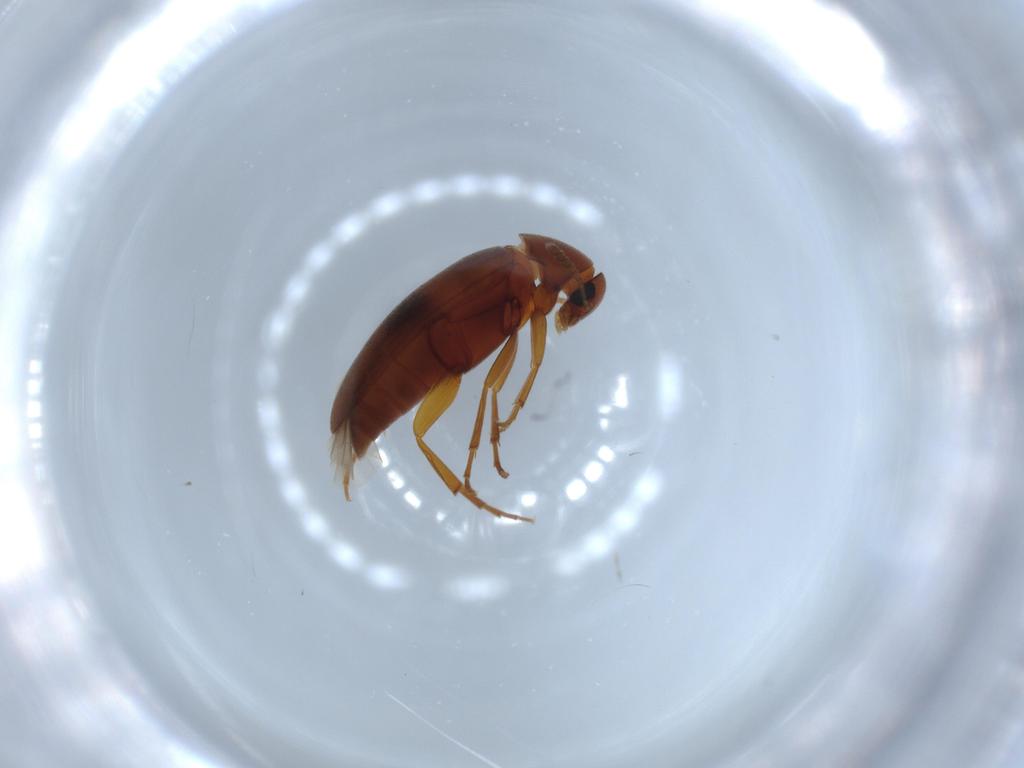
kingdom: Animalia
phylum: Arthropoda
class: Insecta
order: Coleoptera
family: Scraptiidae
